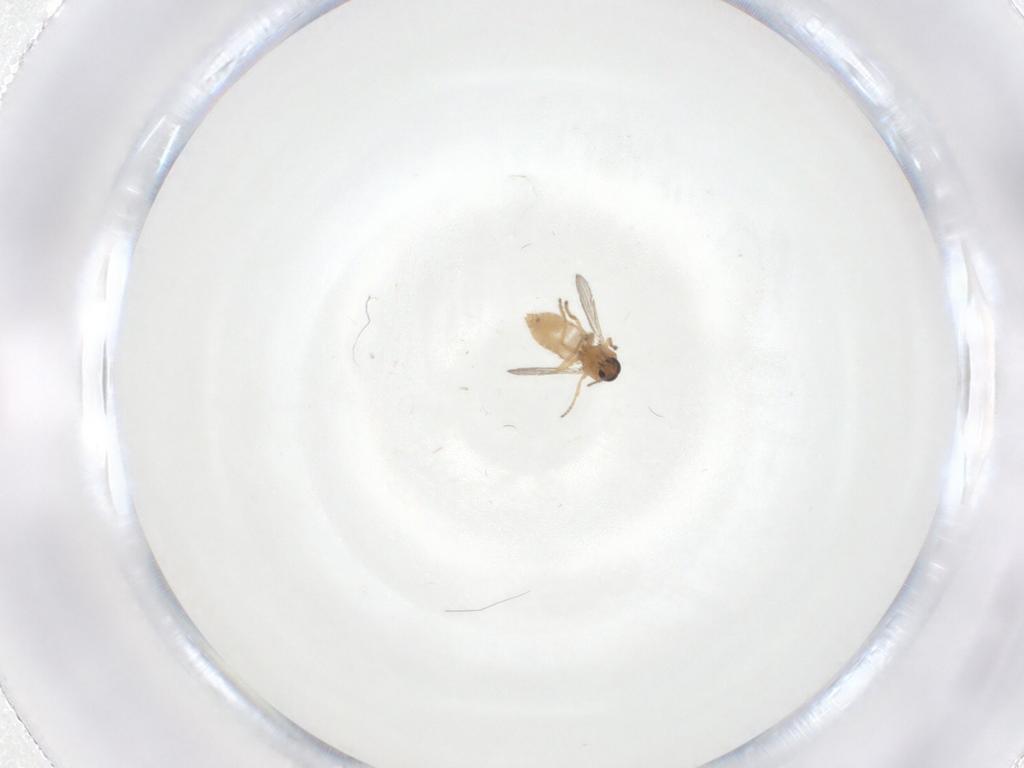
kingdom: Animalia
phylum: Arthropoda
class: Insecta
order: Diptera
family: Ceratopogonidae
